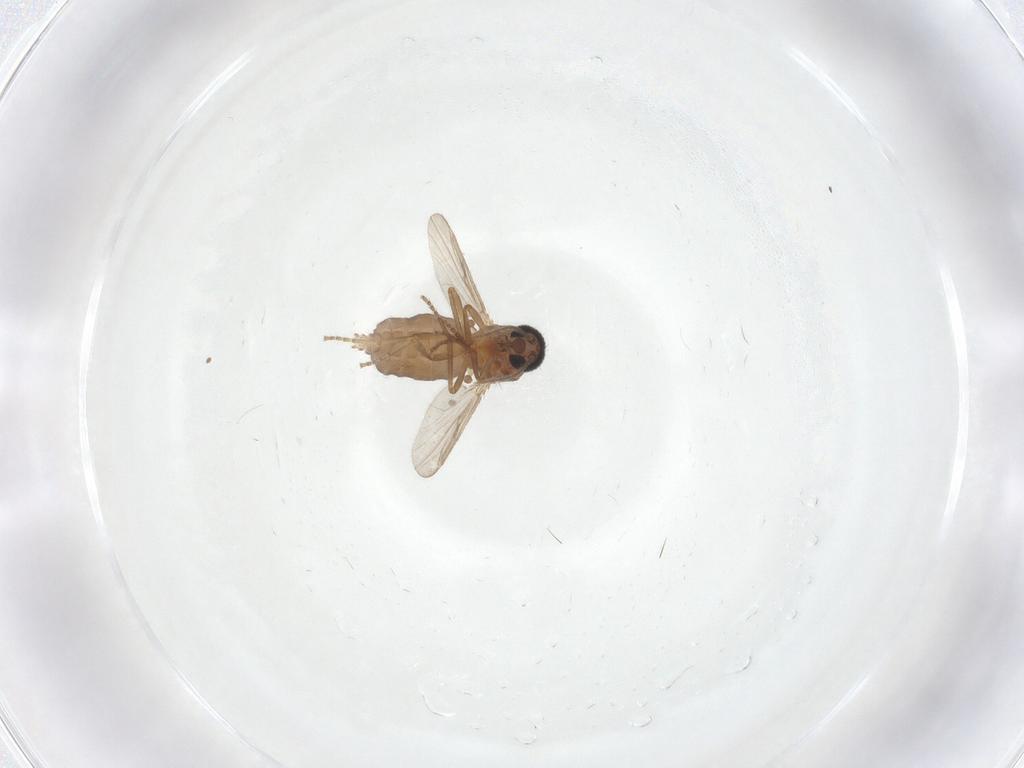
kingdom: Animalia
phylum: Arthropoda
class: Insecta
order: Diptera
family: Ceratopogonidae
